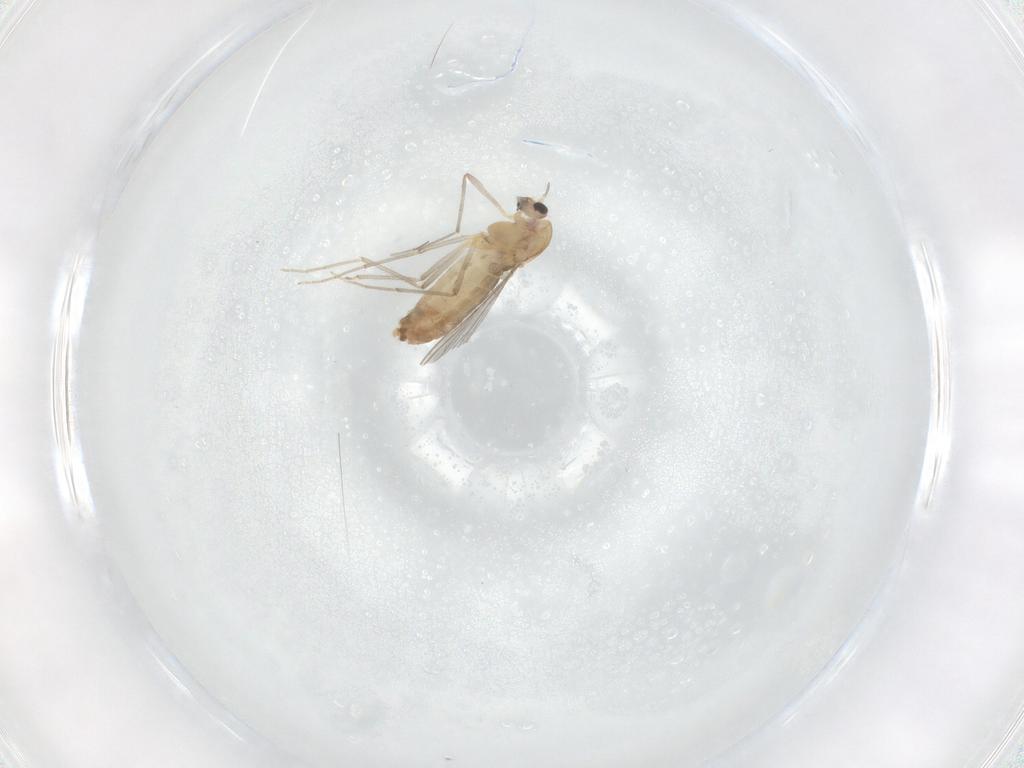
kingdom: Animalia
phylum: Arthropoda
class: Insecta
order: Diptera
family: Chironomidae
